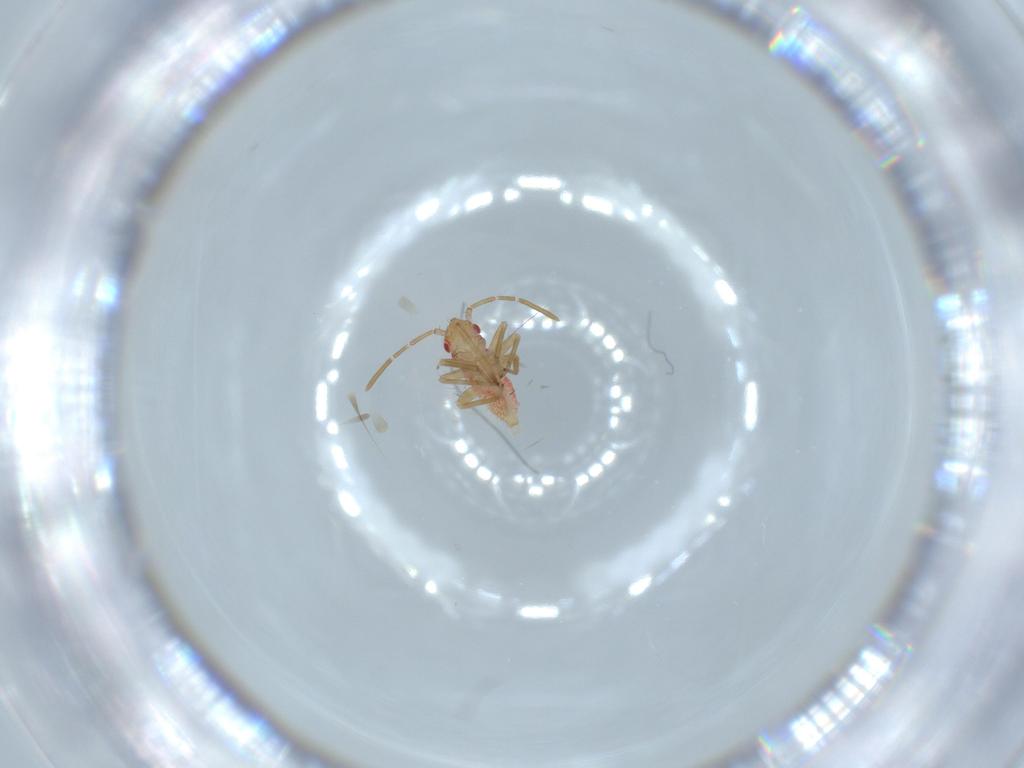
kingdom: Animalia
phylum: Arthropoda
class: Insecta
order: Hemiptera
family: Miridae
